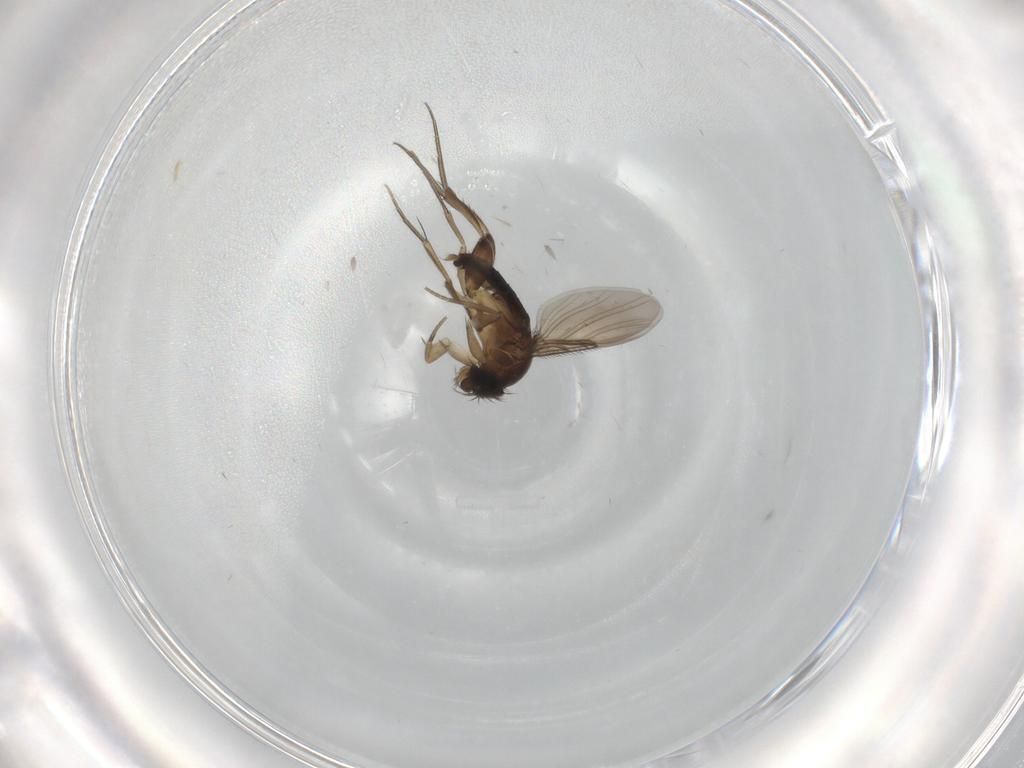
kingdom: Animalia
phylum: Arthropoda
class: Insecta
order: Diptera
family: Phoridae
